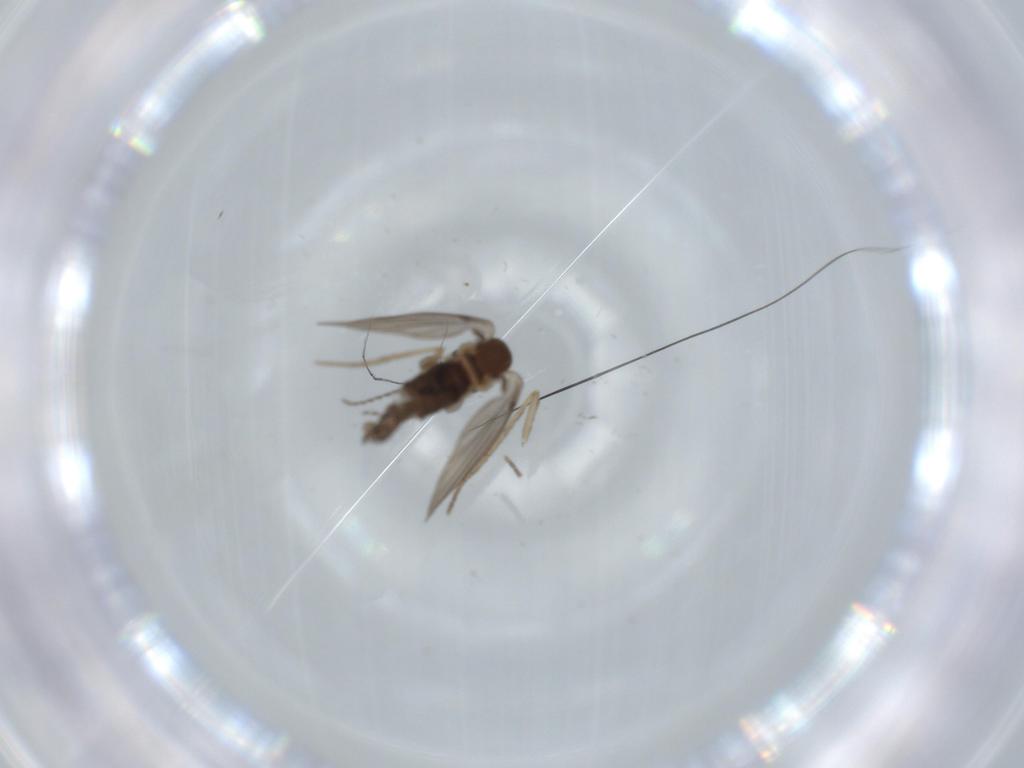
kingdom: Animalia
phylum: Arthropoda
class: Insecta
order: Diptera
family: Psychodidae
